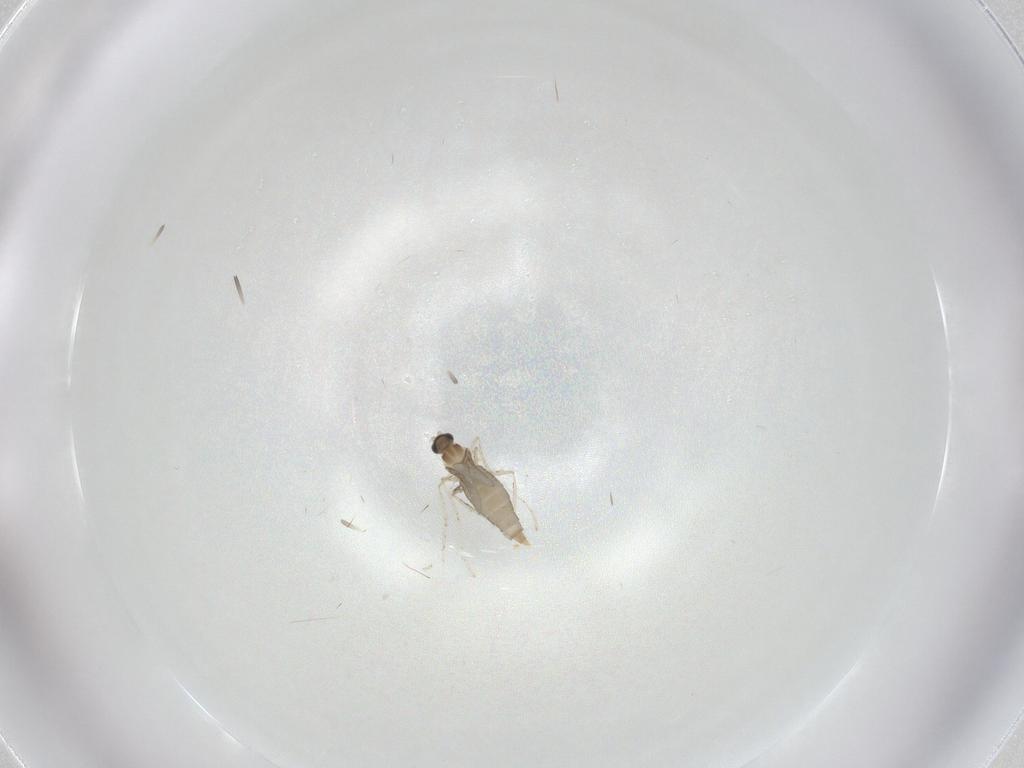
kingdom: Animalia
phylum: Arthropoda
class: Insecta
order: Diptera
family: Cecidomyiidae
